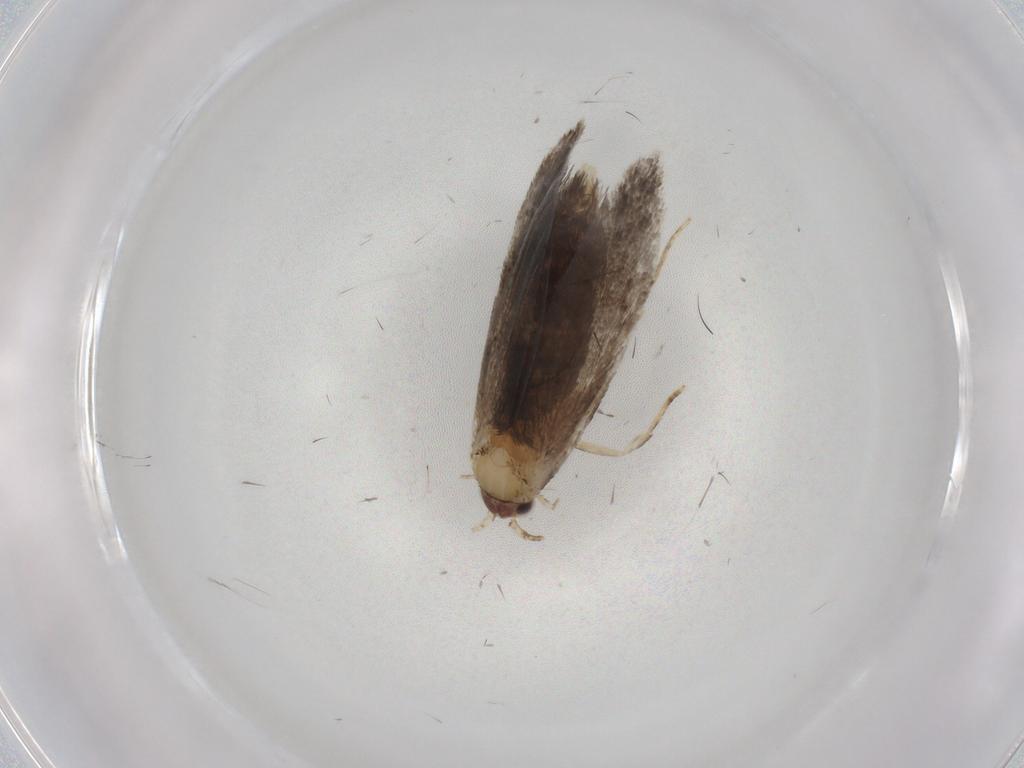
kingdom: Animalia
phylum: Arthropoda
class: Insecta
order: Lepidoptera
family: Nepticulidae
